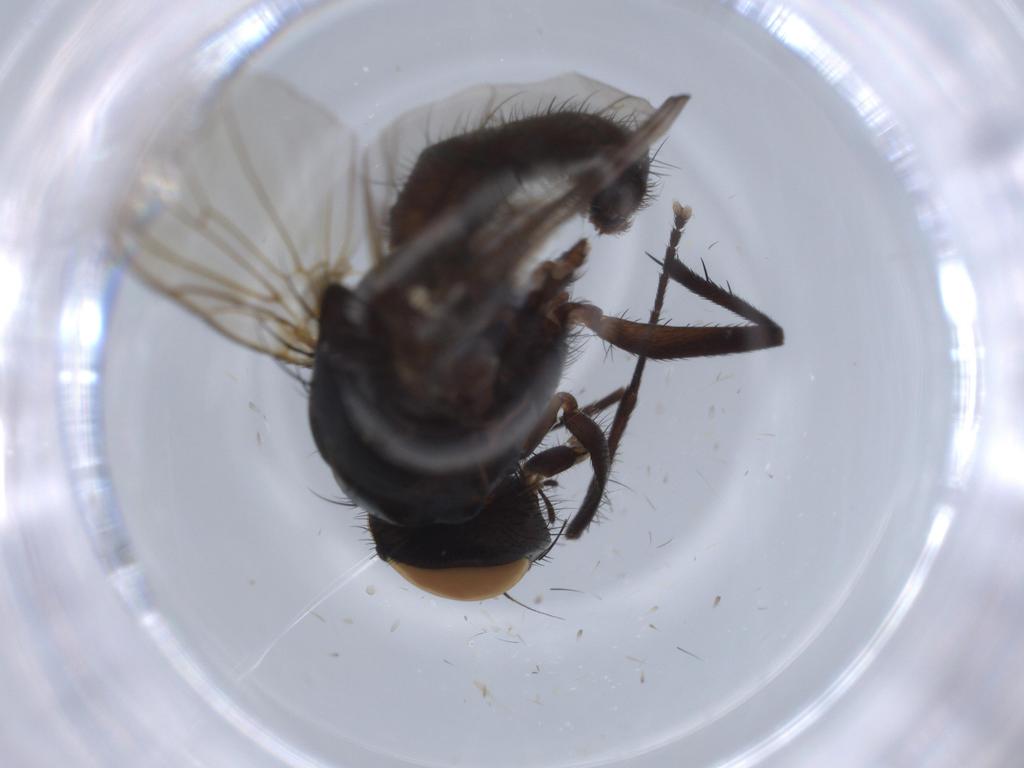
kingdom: Animalia
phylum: Arthropoda
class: Insecta
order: Diptera
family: Anthomyiidae
